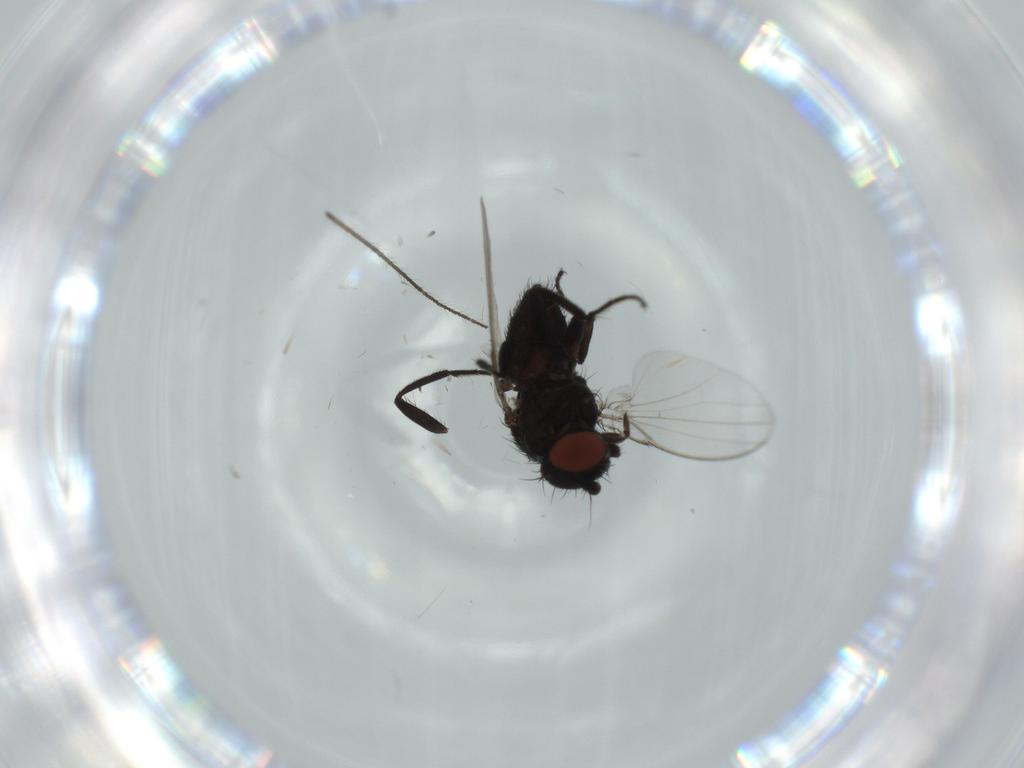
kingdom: Animalia
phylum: Arthropoda
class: Insecta
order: Diptera
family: Milichiidae
